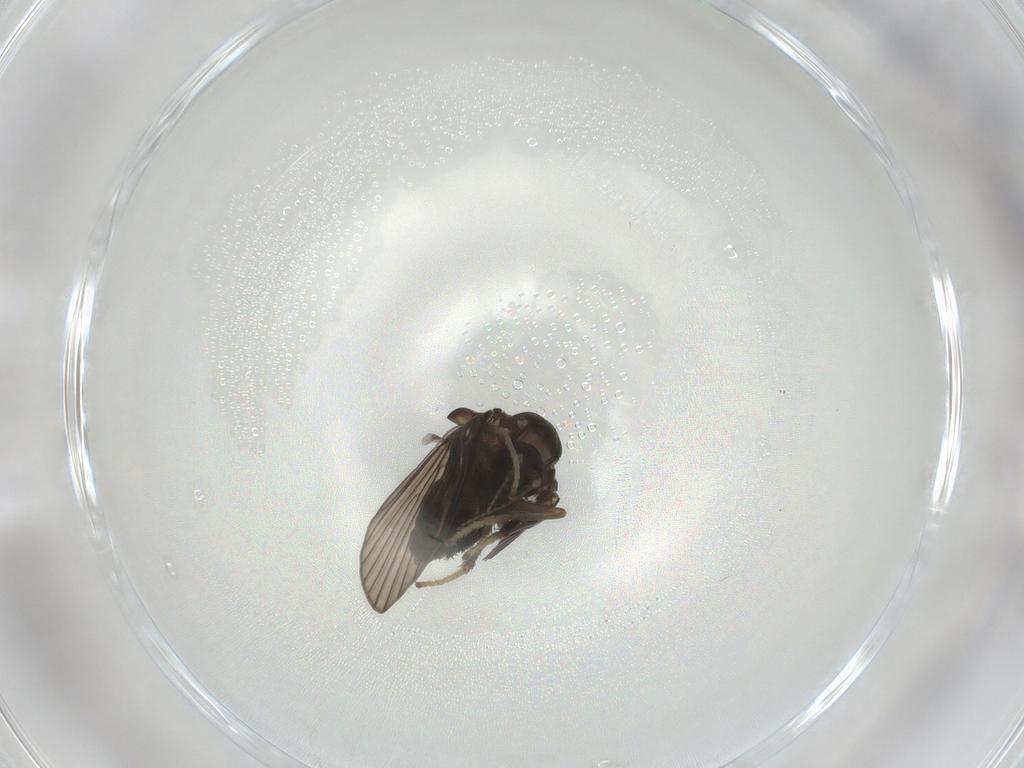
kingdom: Animalia
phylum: Arthropoda
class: Insecta
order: Diptera
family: Psychodidae
